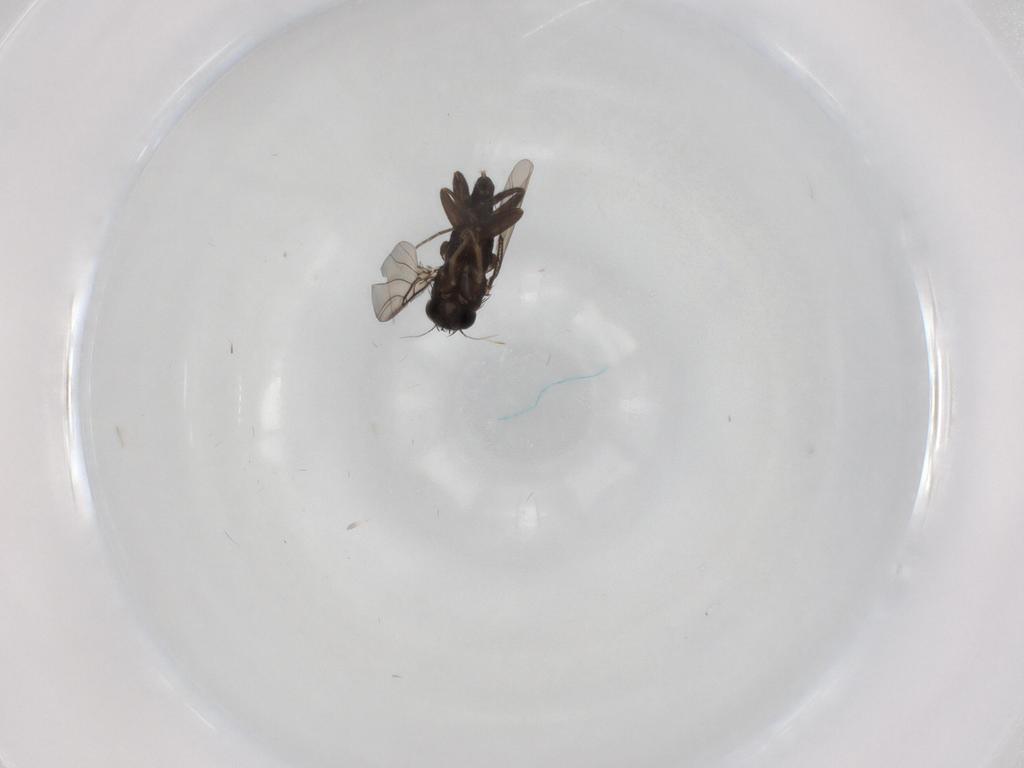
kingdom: Animalia
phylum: Arthropoda
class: Insecta
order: Diptera
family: Phoridae
